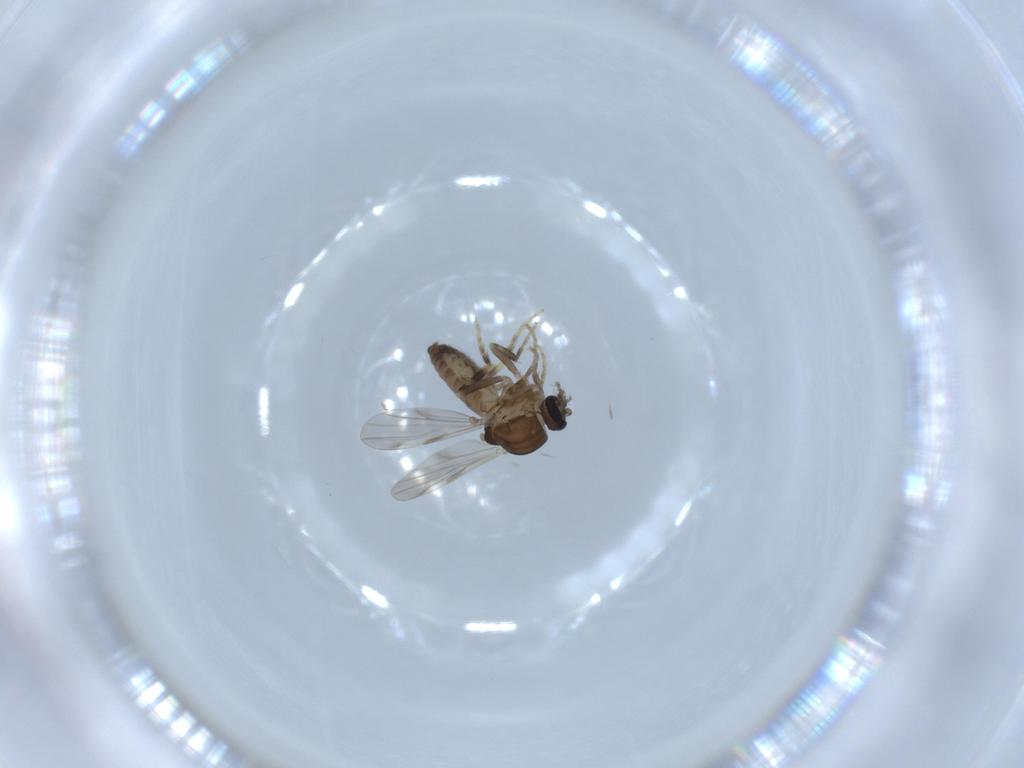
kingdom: Animalia
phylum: Arthropoda
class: Insecta
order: Diptera
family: Ceratopogonidae
